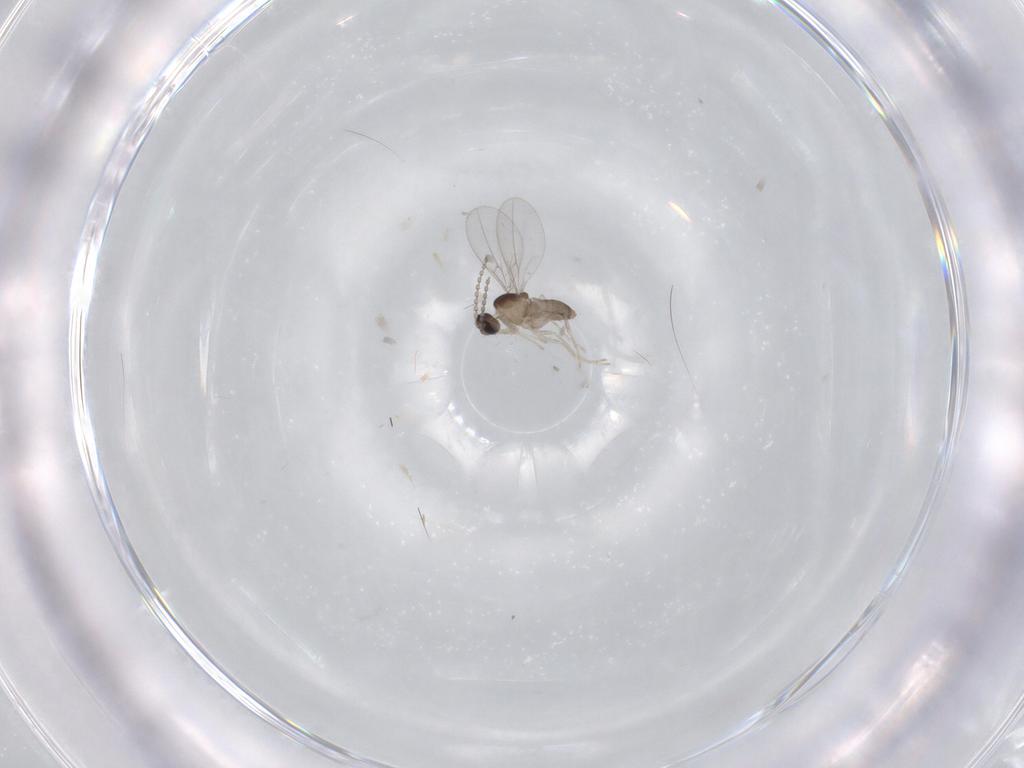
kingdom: Animalia
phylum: Arthropoda
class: Insecta
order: Diptera
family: Cecidomyiidae
